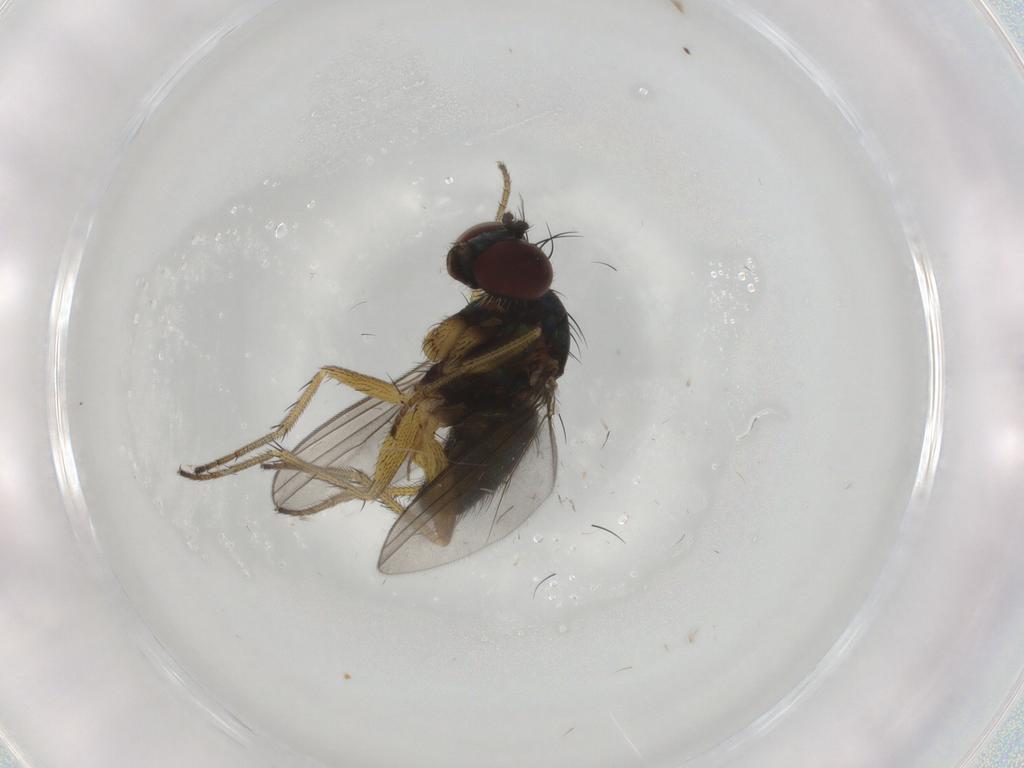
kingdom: Animalia
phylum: Arthropoda
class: Insecta
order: Diptera
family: Dolichopodidae
